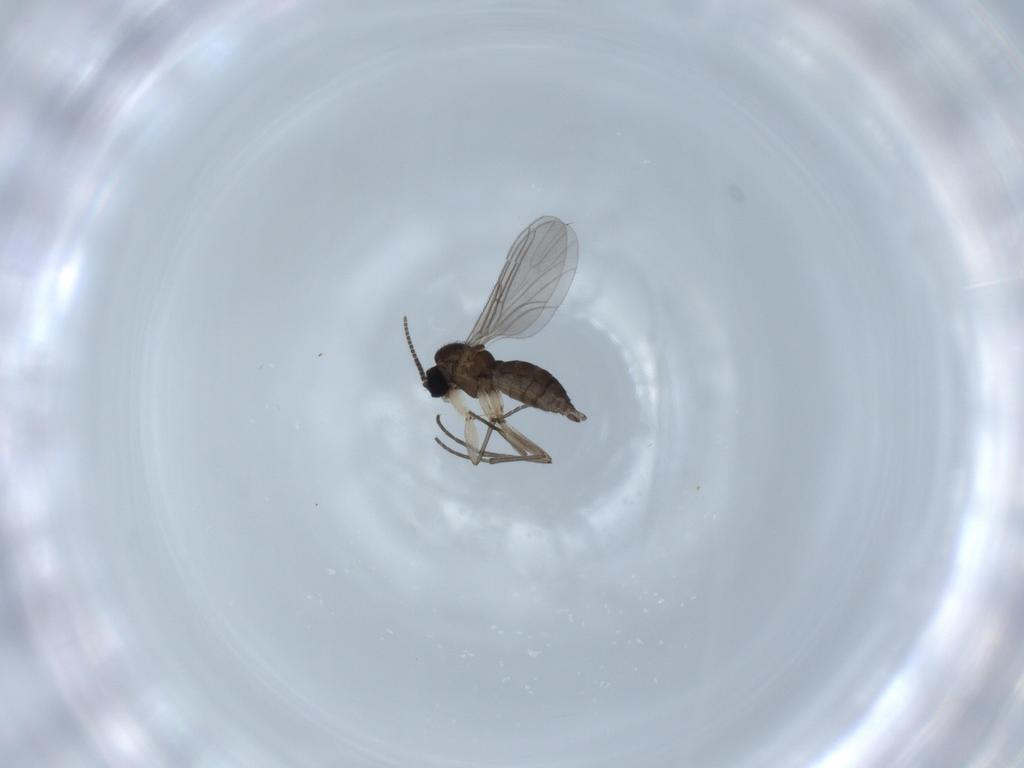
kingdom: Animalia
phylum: Arthropoda
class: Insecta
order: Diptera
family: Sciaridae
